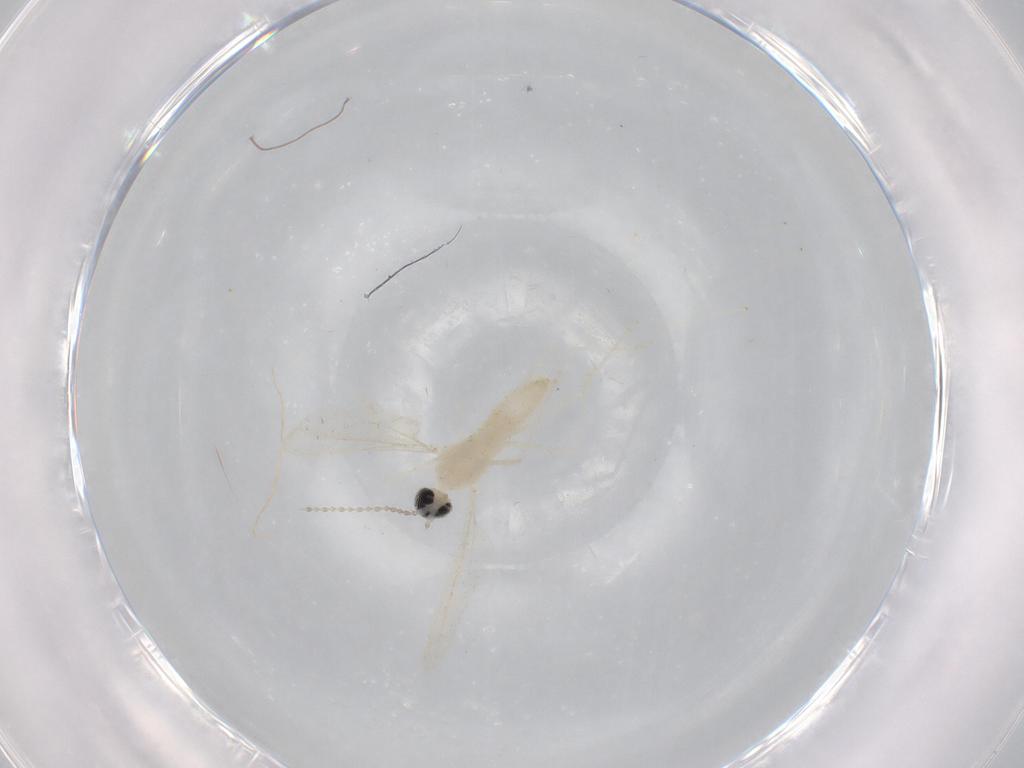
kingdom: Animalia
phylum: Arthropoda
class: Insecta
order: Diptera
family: Cecidomyiidae
